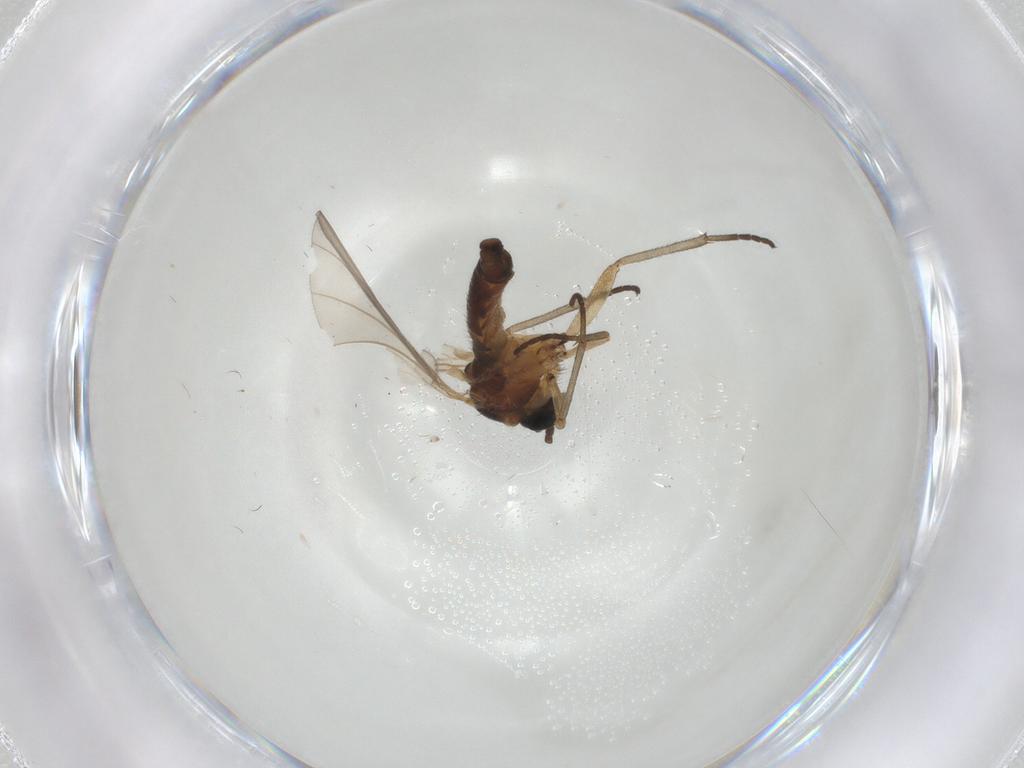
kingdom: Animalia
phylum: Arthropoda
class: Insecta
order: Diptera
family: Sciaridae
